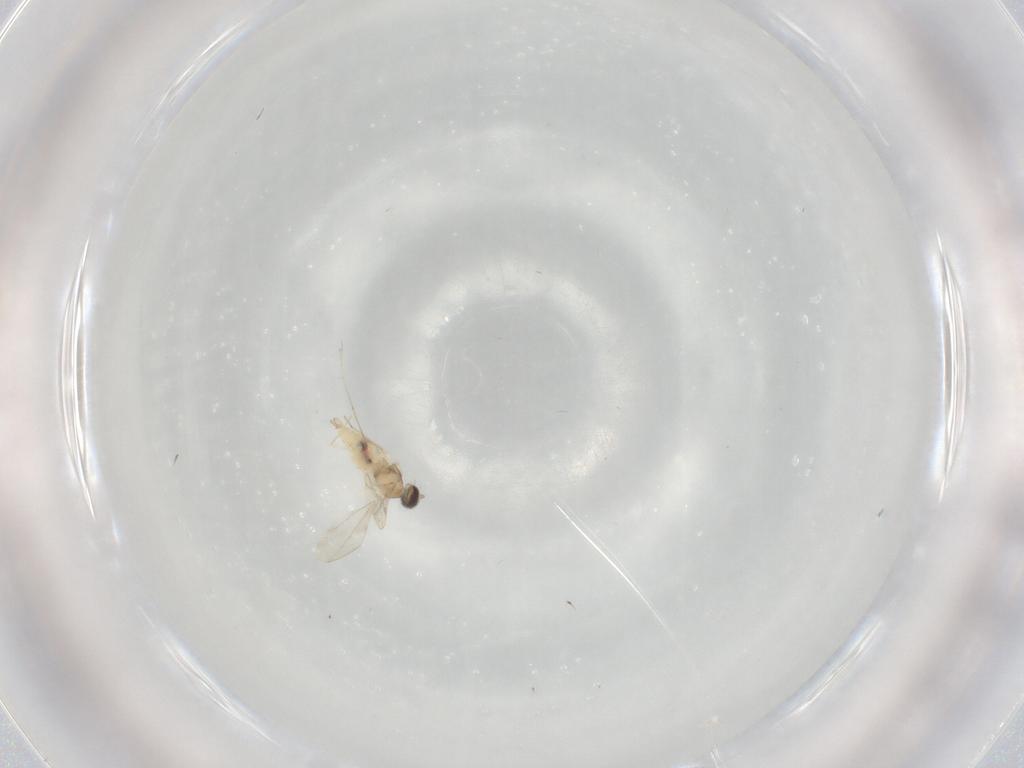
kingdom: Animalia
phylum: Arthropoda
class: Insecta
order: Diptera
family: Cecidomyiidae
